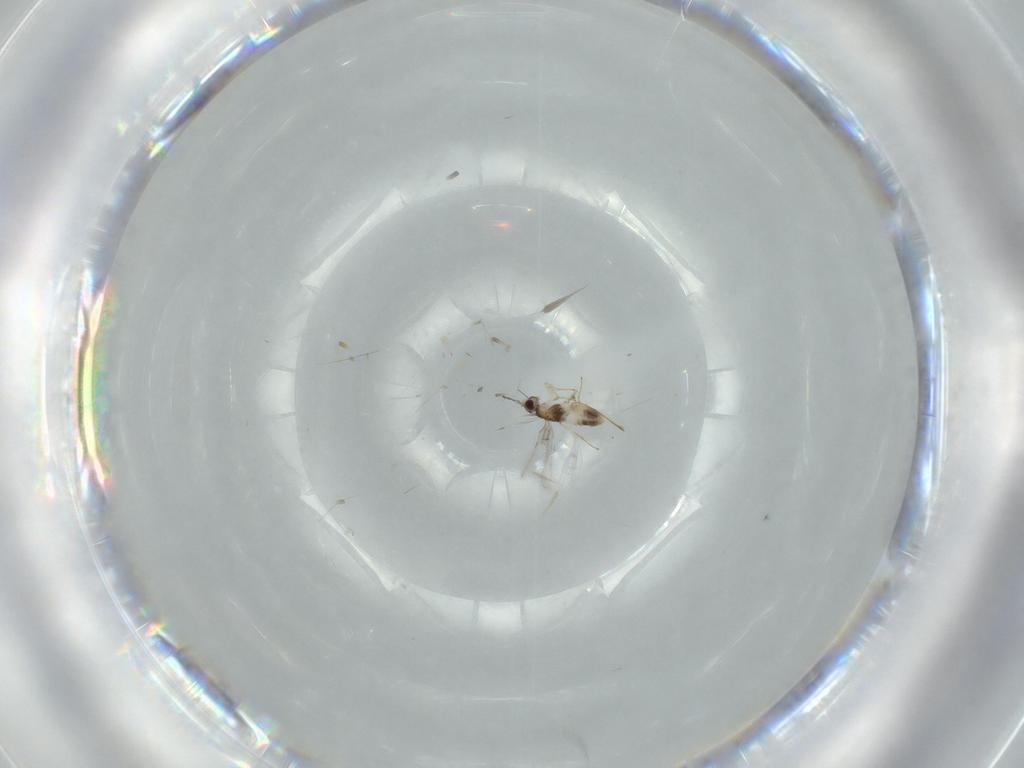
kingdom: Animalia
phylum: Arthropoda
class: Insecta
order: Hymenoptera
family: Mymaridae
